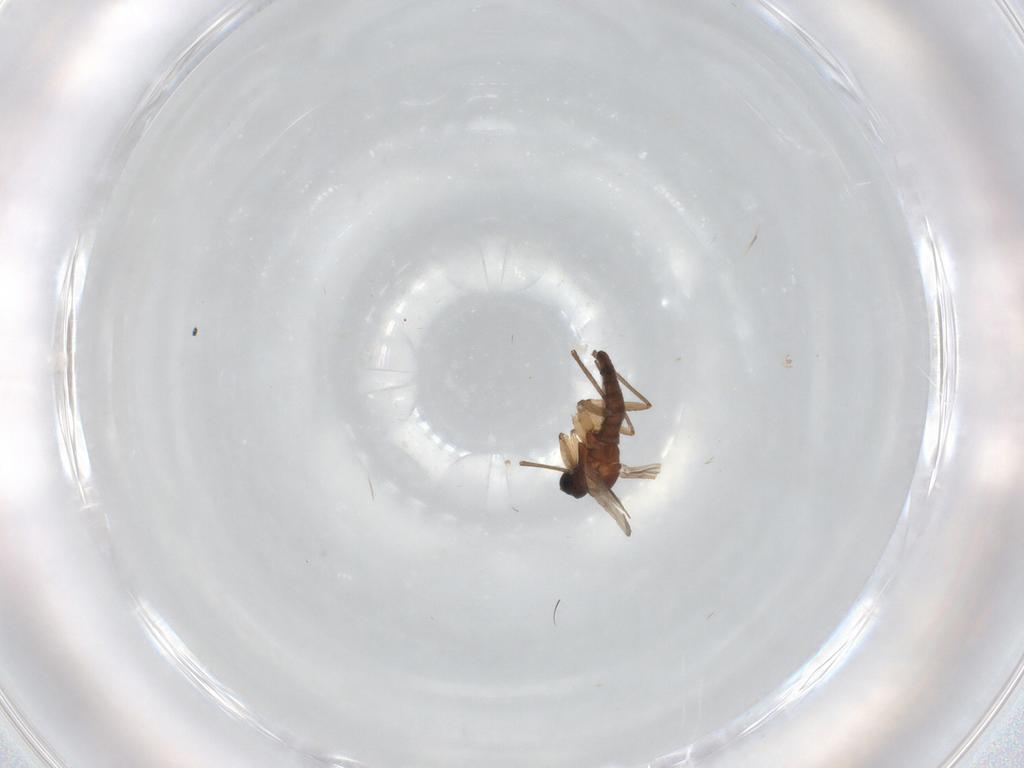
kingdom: Animalia
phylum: Arthropoda
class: Insecta
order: Diptera
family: Sciaridae
